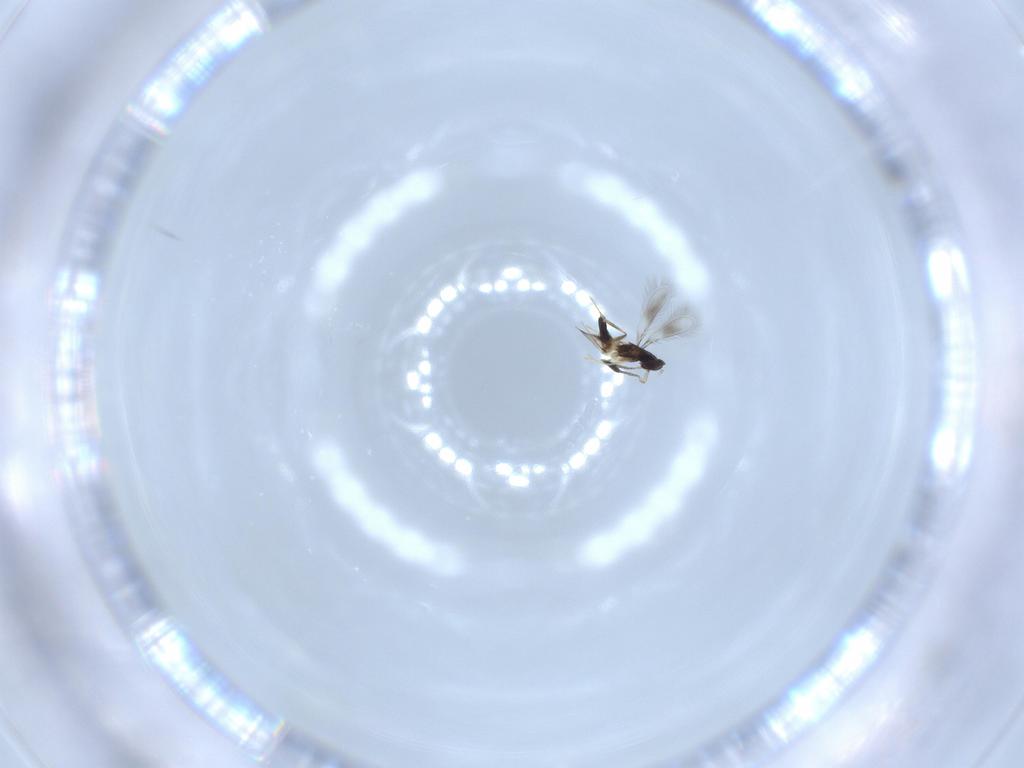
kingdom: Animalia
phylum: Arthropoda
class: Insecta
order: Hymenoptera
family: Mymaridae
